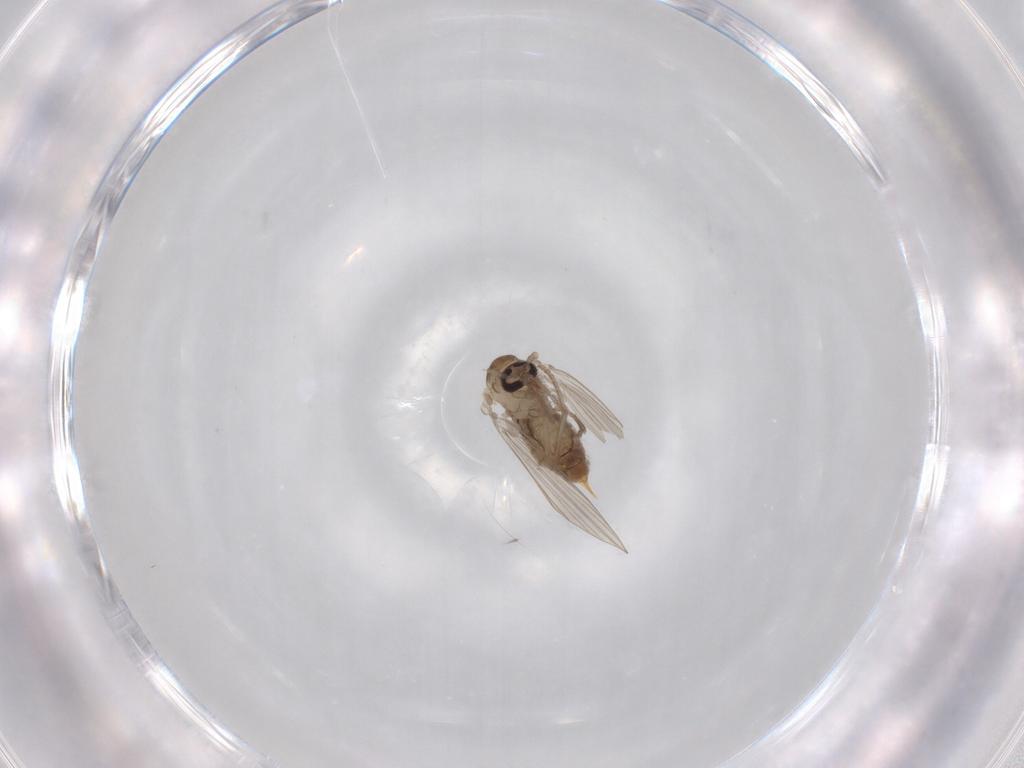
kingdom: Animalia
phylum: Arthropoda
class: Insecta
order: Diptera
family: Psychodidae
